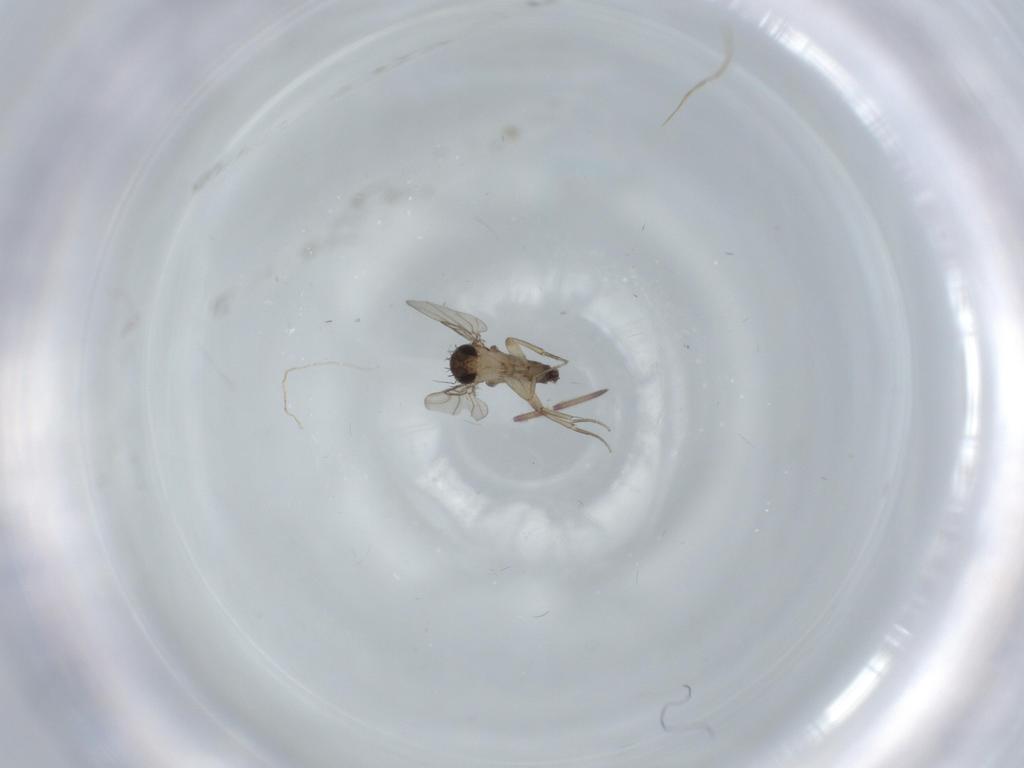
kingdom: Animalia
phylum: Arthropoda
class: Insecta
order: Diptera
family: Phoridae
